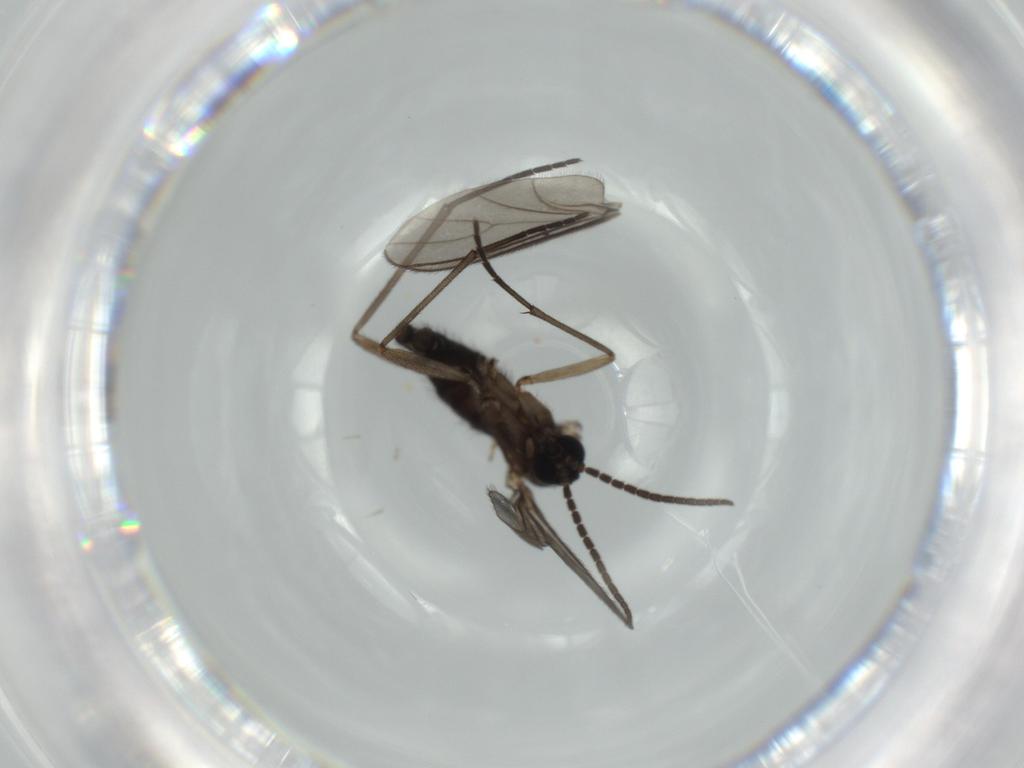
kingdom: Animalia
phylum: Arthropoda
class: Insecta
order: Diptera
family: Sciaridae
